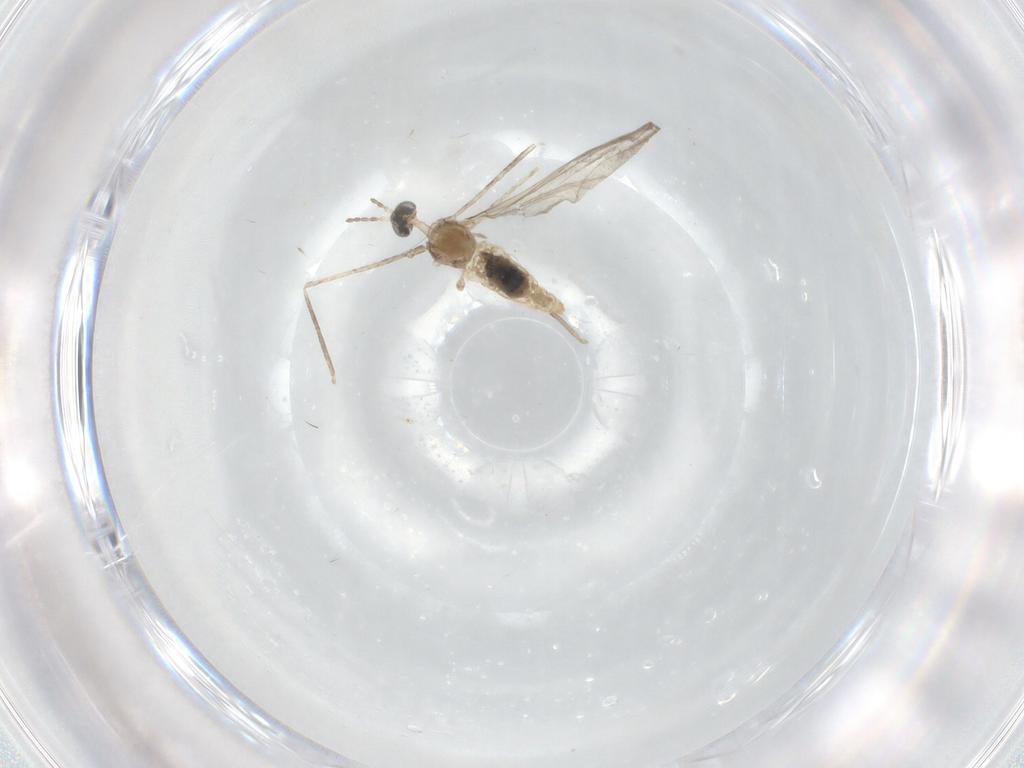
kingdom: Animalia
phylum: Arthropoda
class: Insecta
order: Diptera
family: Cecidomyiidae
